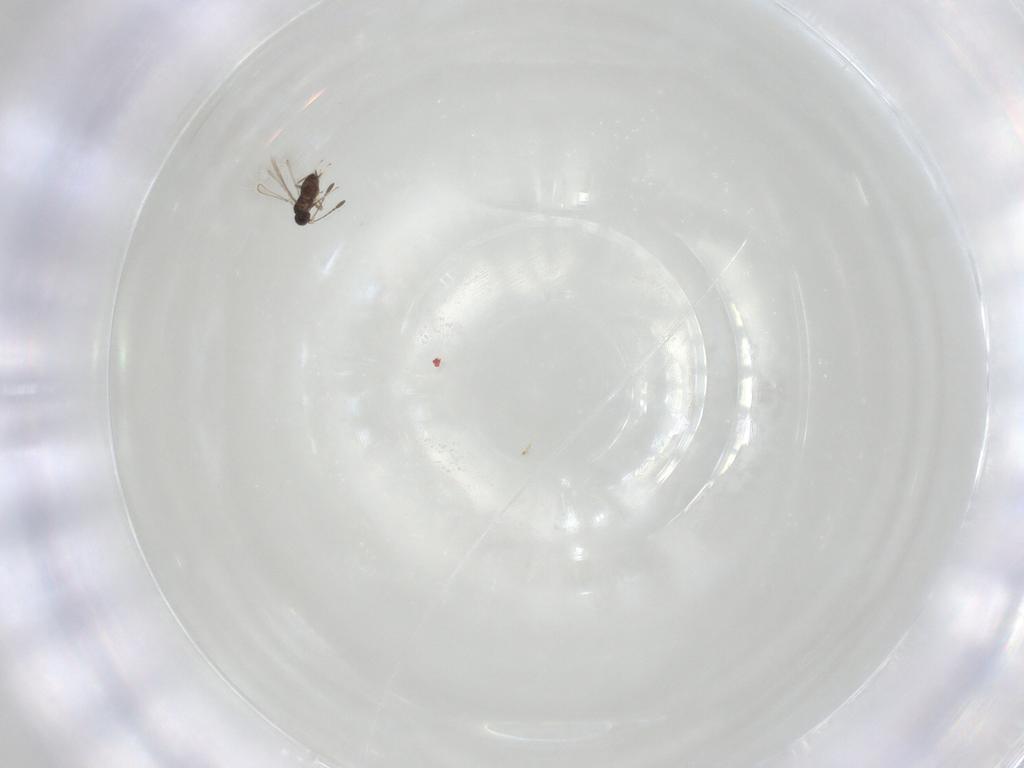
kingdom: Animalia
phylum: Arthropoda
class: Insecta
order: Hymenoptera
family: Mymaridae
